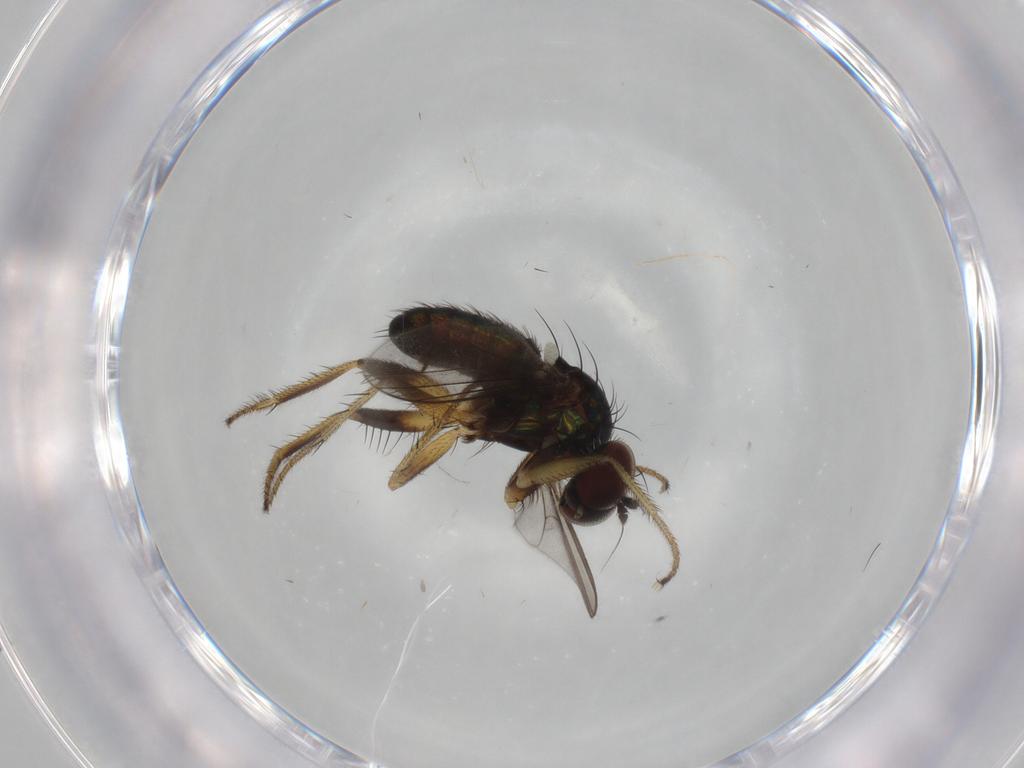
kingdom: Animalia
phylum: Arthropoda
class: Insecta
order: Diptera
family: Dolichopodidae
